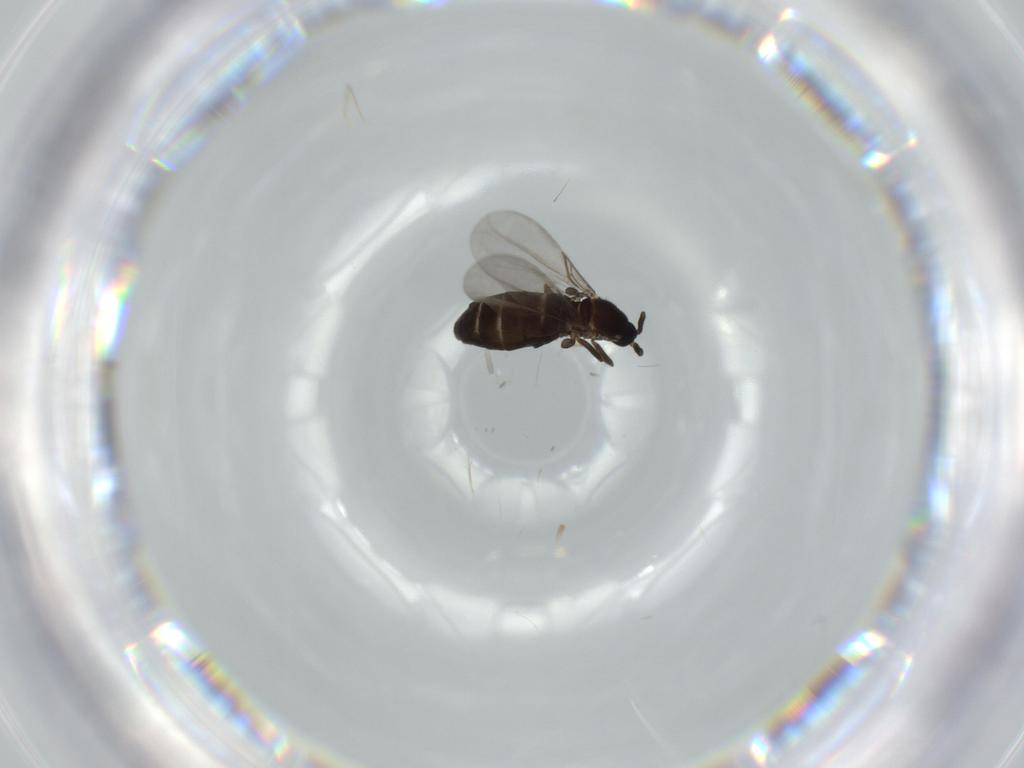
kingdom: Animalia
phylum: Arthropoda
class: Insecta
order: Diptera
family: Scatopsidae
